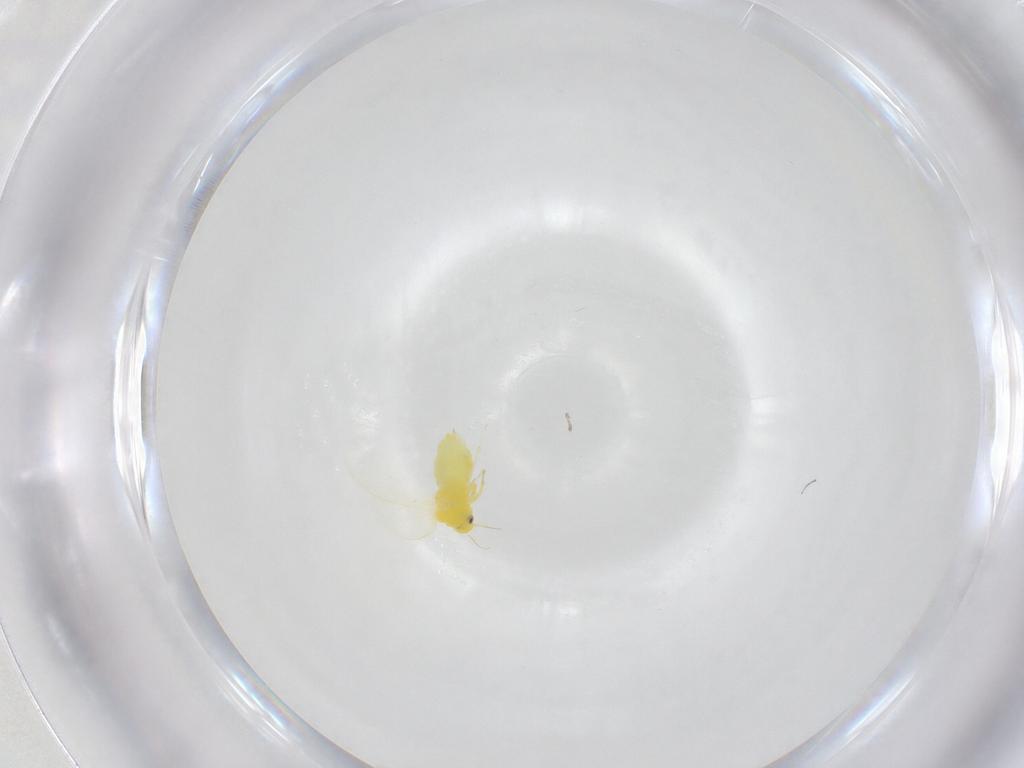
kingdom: Animalia
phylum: Arthropoda
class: Insecta
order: Hemiptera
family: Aleyrodidae
